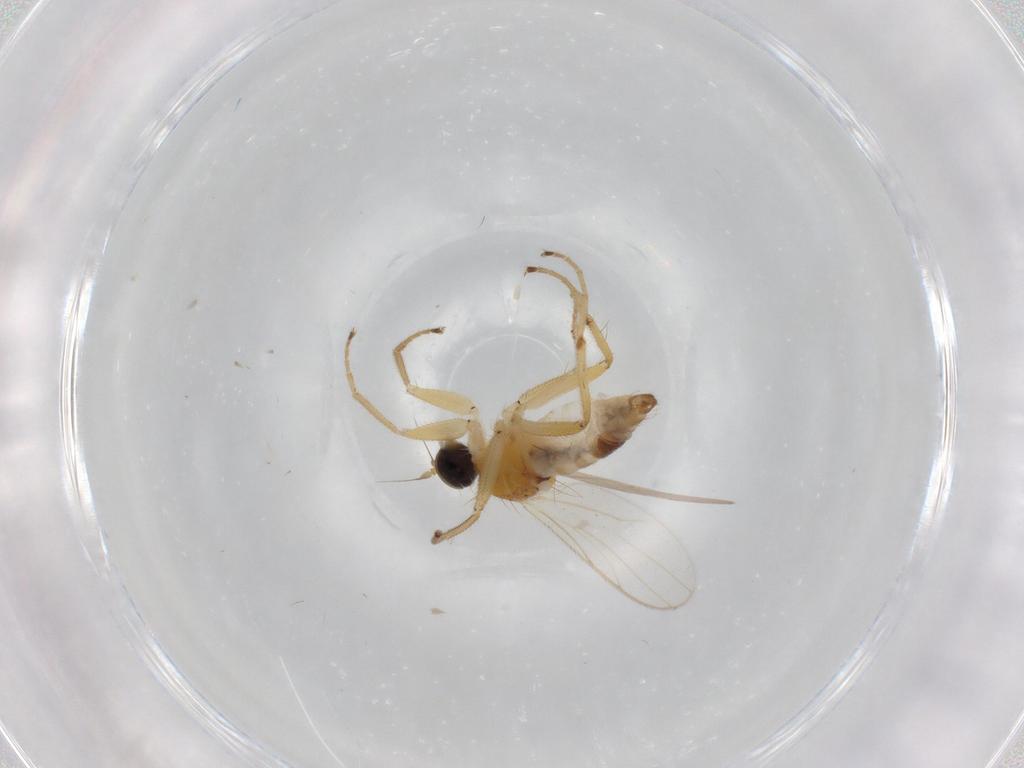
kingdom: Animalia
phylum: Arthropoda
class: Insecta
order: Diptera
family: Hybotidae
